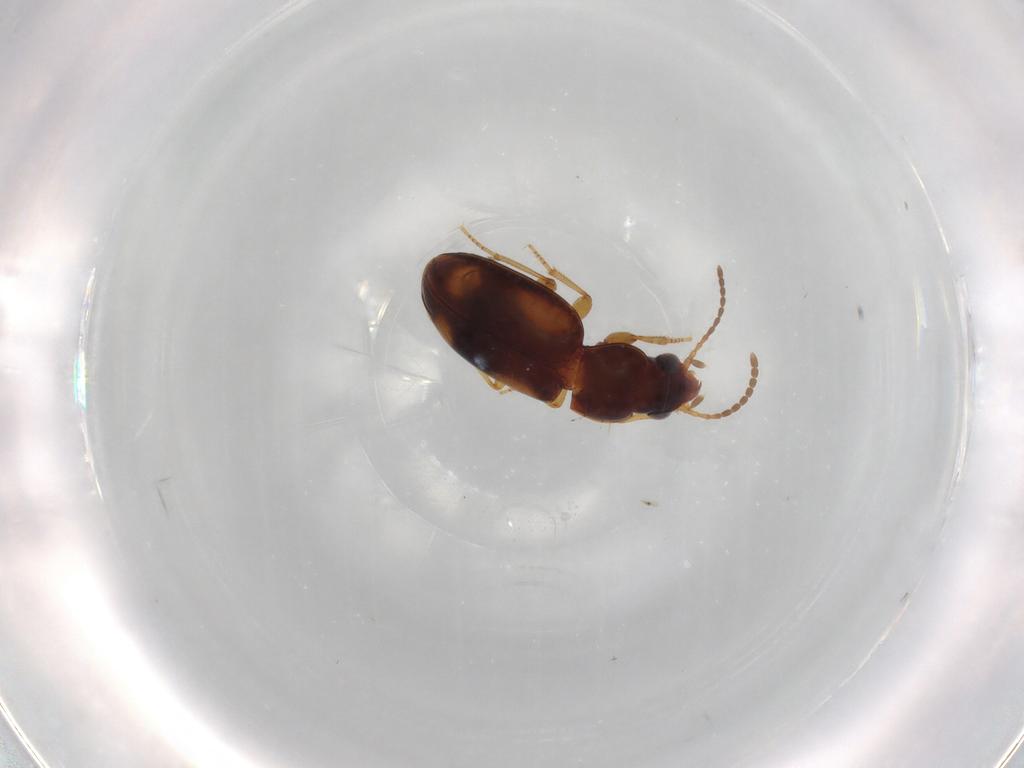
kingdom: Animalia
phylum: Arthropoda
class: Insecta
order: Coleoptera
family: Carabidae
